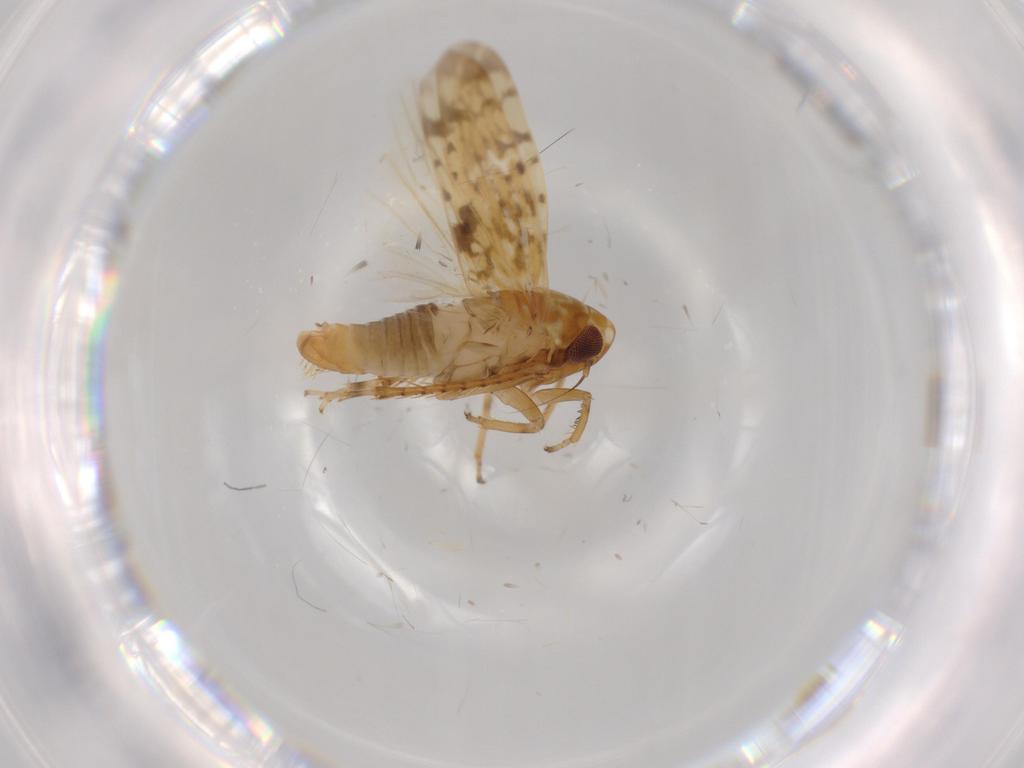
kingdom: Animalia
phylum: Arthropoda
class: Insecta
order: Hemiptera
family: Cicadellidae
